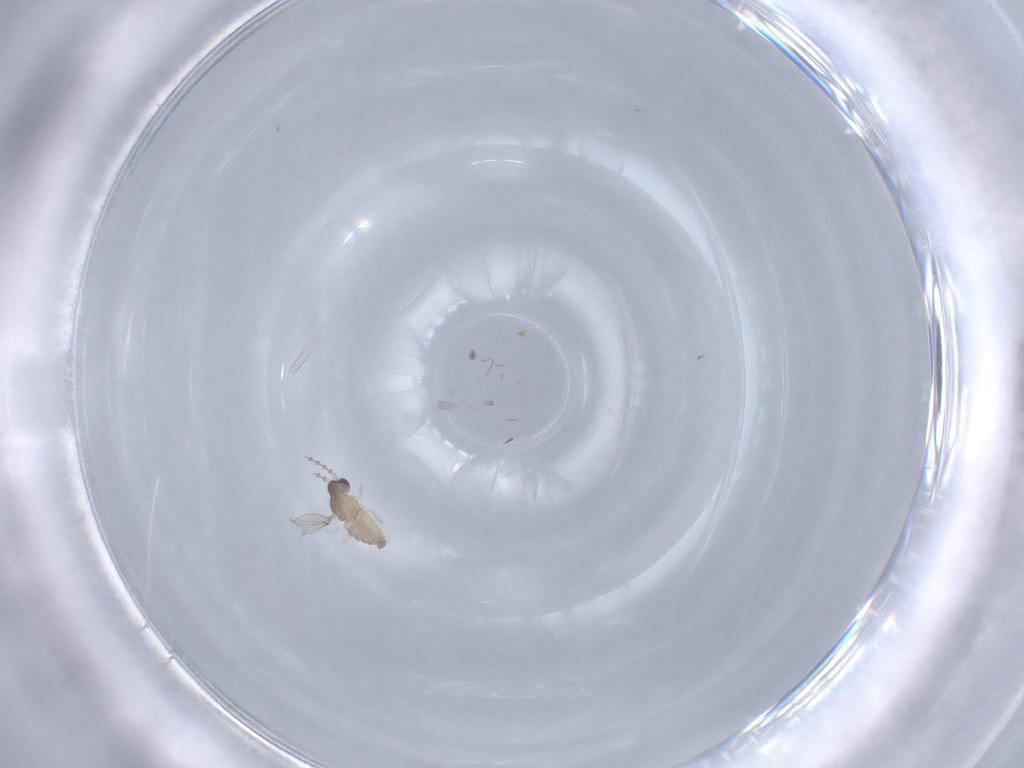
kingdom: Animalia
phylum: Arthropoda
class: Insecta
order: Diptera
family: Cecidomyiidae
